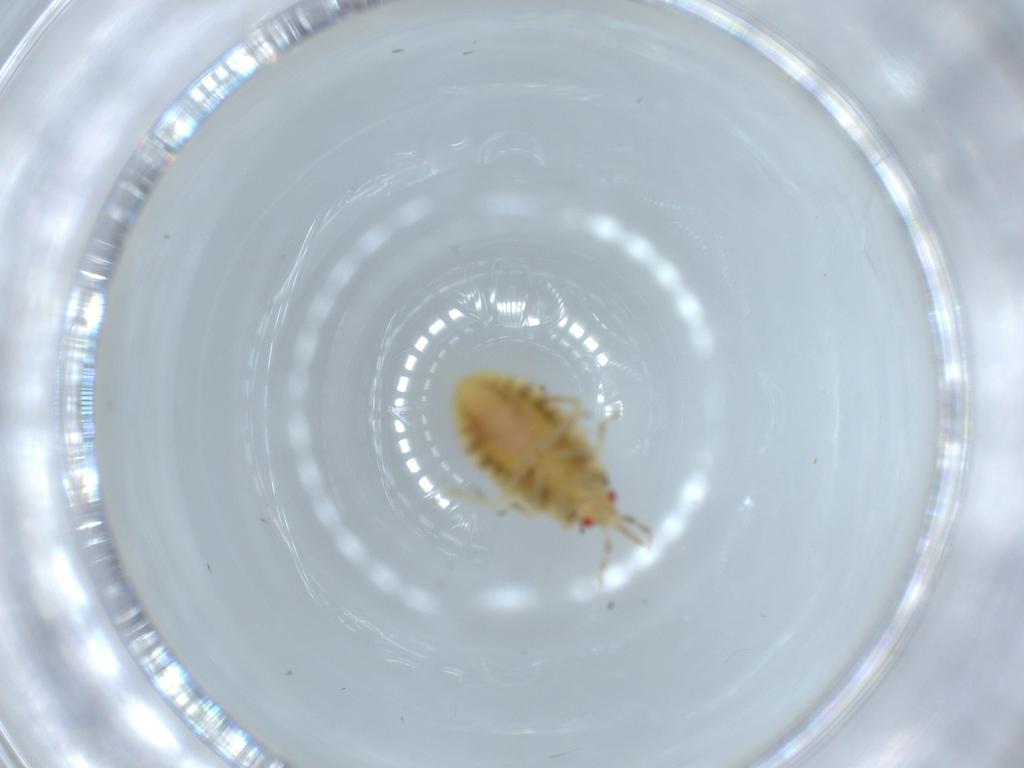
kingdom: Animalia
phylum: Arthropoda
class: Insecta
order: Hemiptera
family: Anthocoridae
